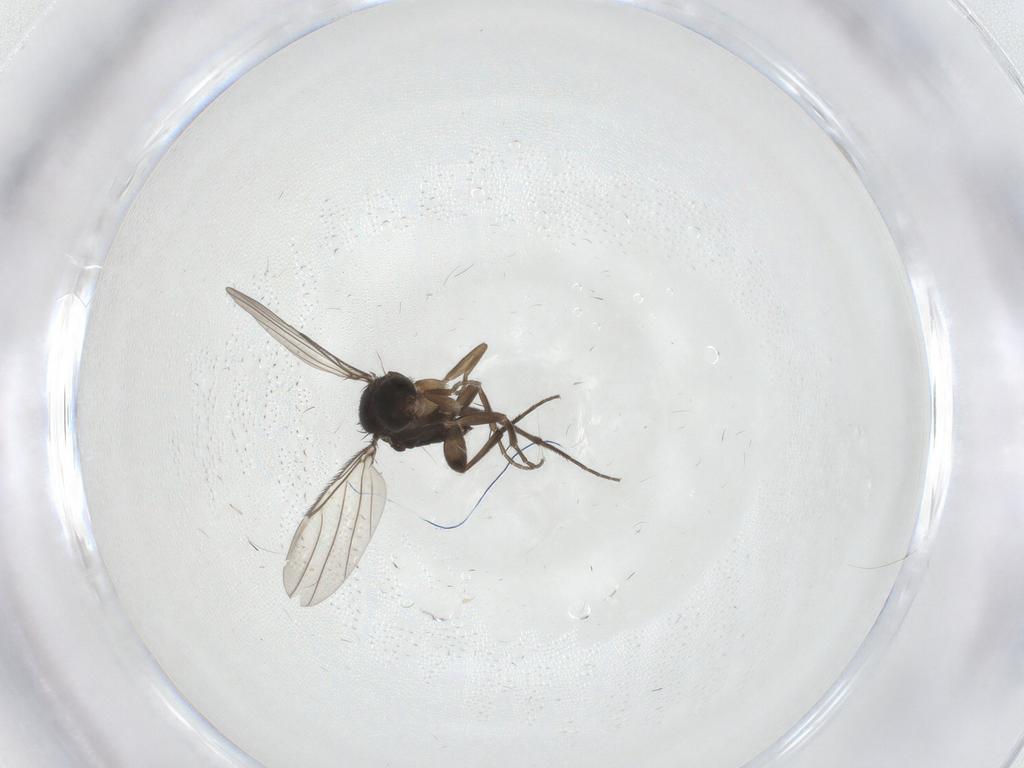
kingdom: Animalia
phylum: Arthropoda
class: Insecta
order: Diptera
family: Phoridae
